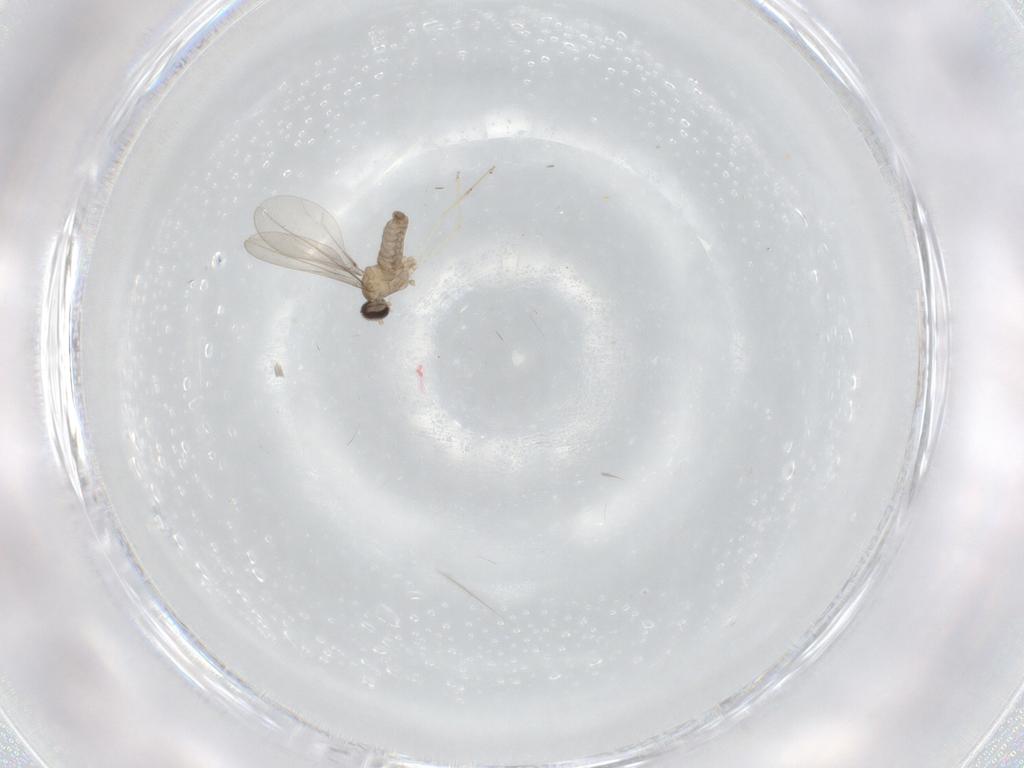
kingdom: Animalia
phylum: Arthropoda
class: Insecta
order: Diptera
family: Cecidomyiidae
